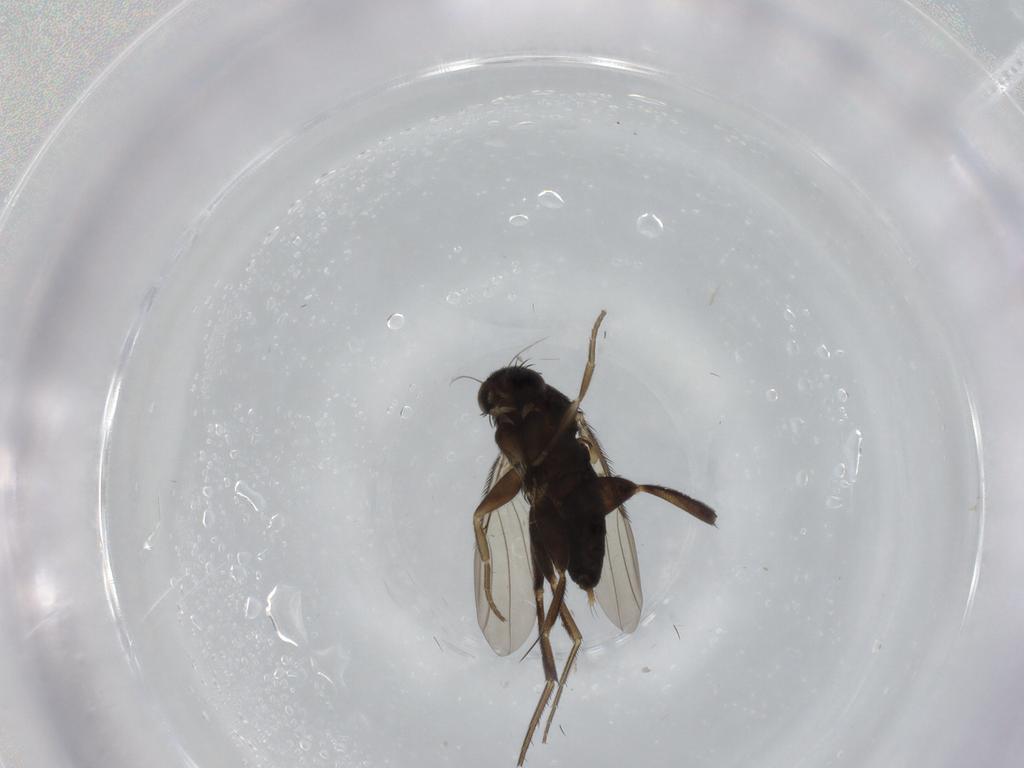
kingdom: Animalia
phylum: Arthropoda
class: Insecta
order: Diptera
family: Phoridae
